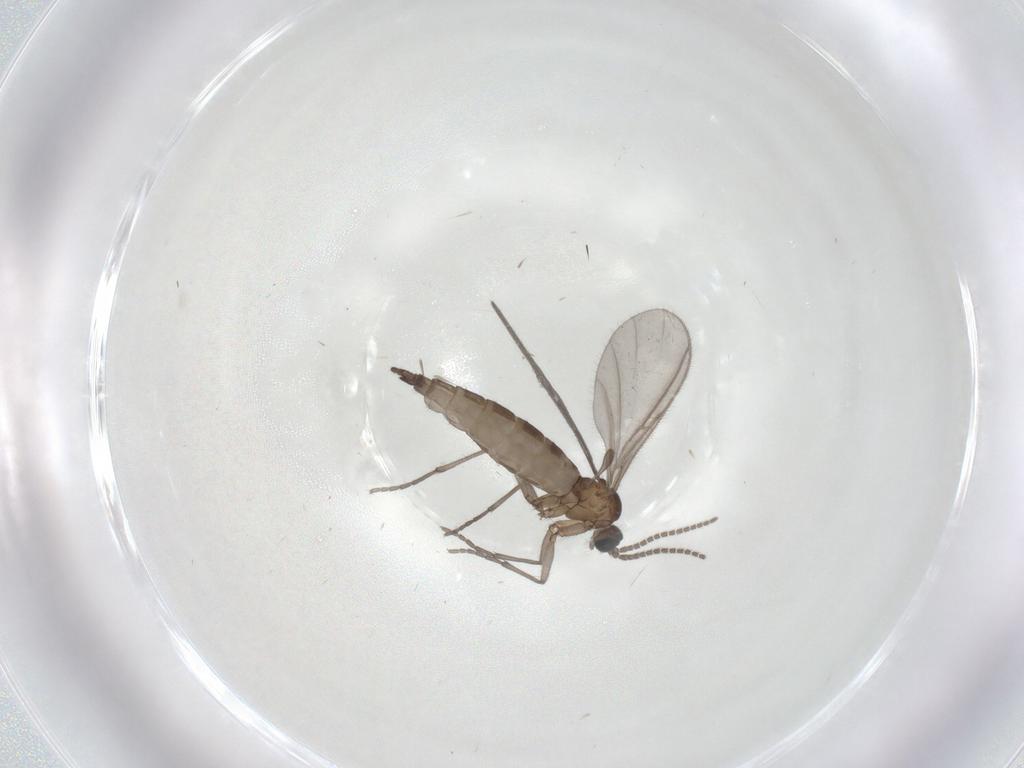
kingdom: Animalia
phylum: Arthropoda
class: Insecta
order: Diptera
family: Sciaridae
